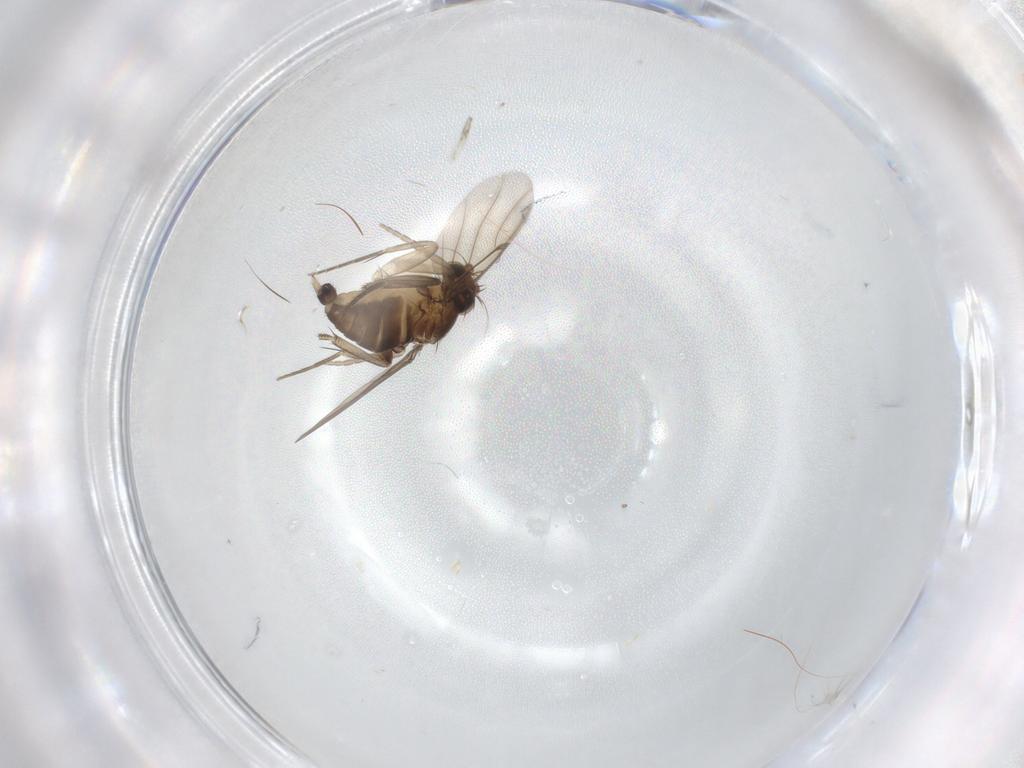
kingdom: Animalia
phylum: Arthropoda
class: Insecta
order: Diptera
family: Phoridae
